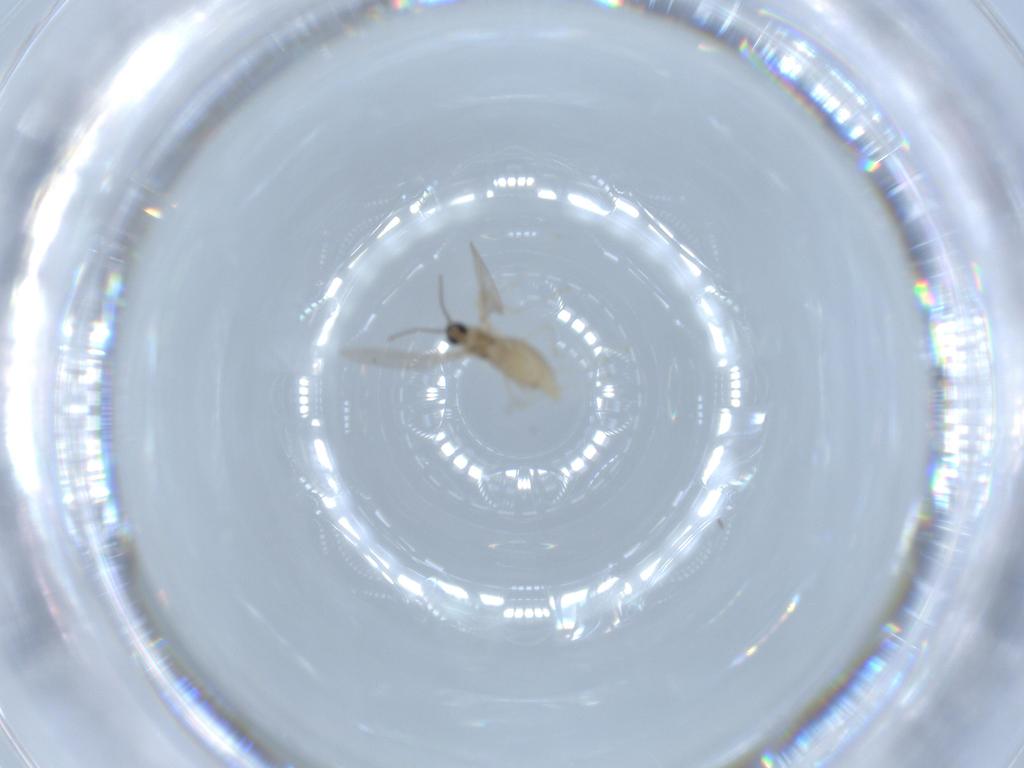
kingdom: Animalia
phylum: Arthropoda
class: Insecta
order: Diptera
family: Cecidomyiidae
